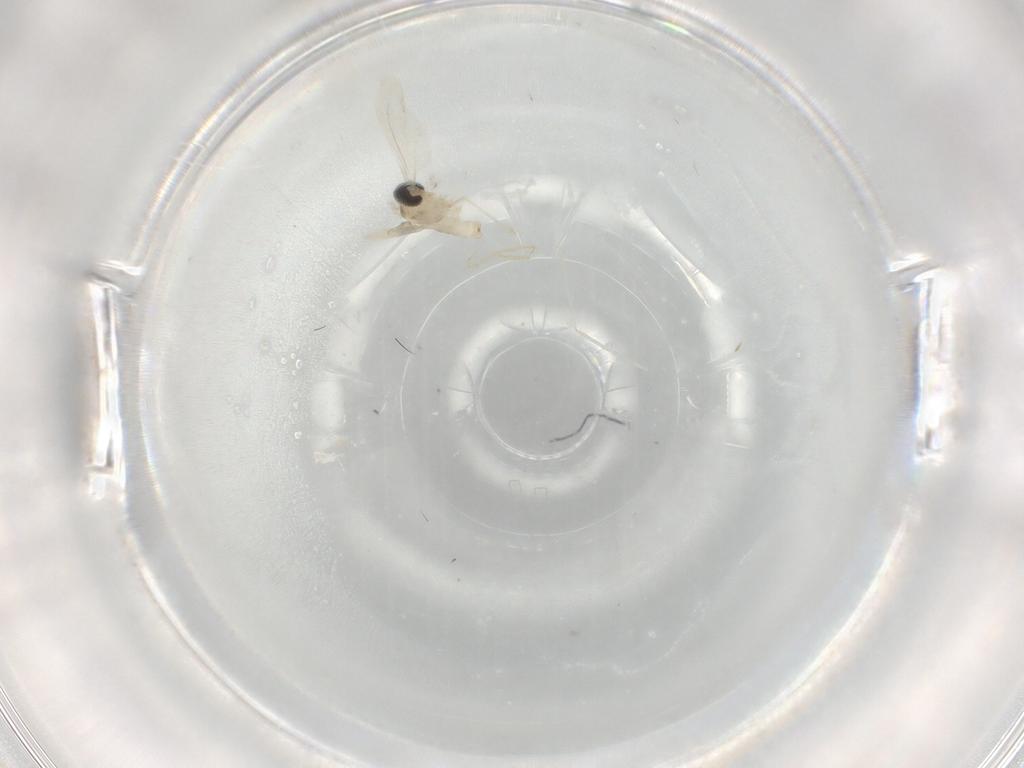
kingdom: Animalia
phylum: Arthropoda
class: Insecta
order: Diptera
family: Cecidomyiidae
